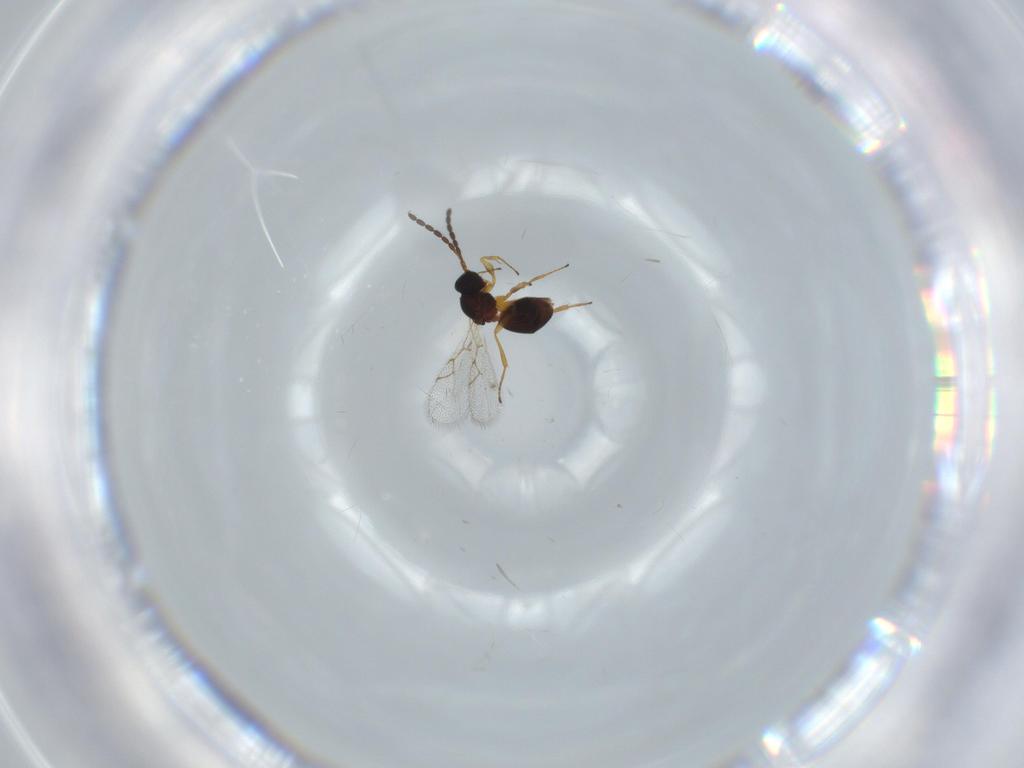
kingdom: Animalia
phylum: Arthropoda
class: Insecta
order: Hymenoptera
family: Figitidae
